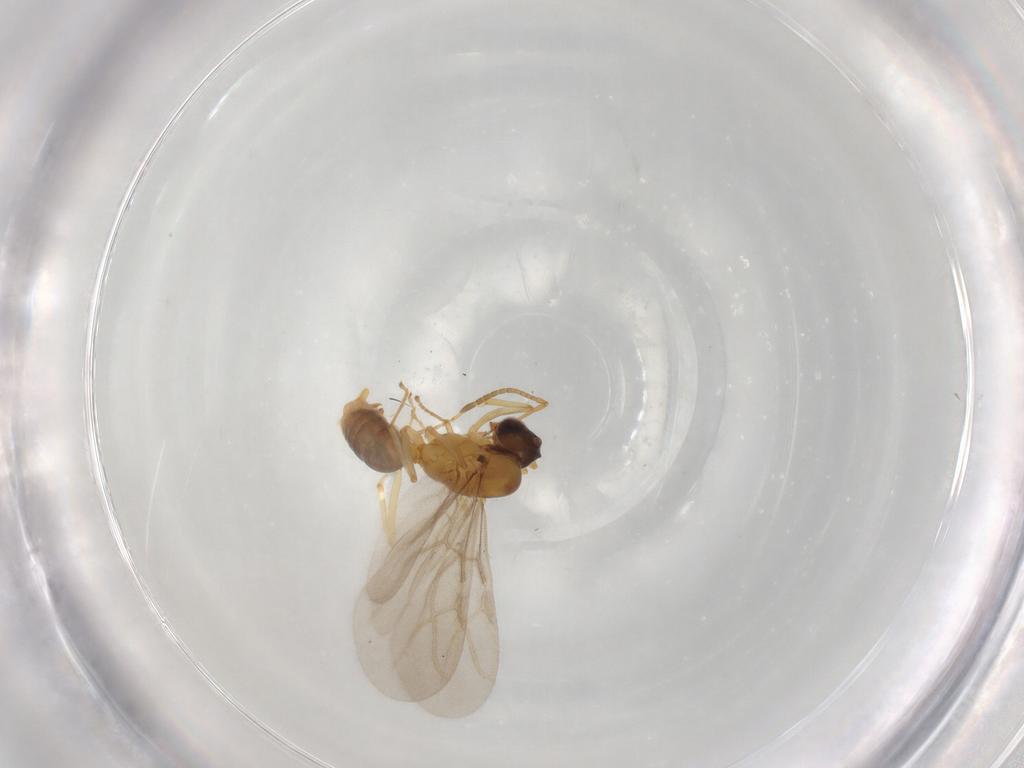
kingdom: Animalia
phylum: Arthropoda
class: Insecta
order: Hymenoptera
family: Formicidae
